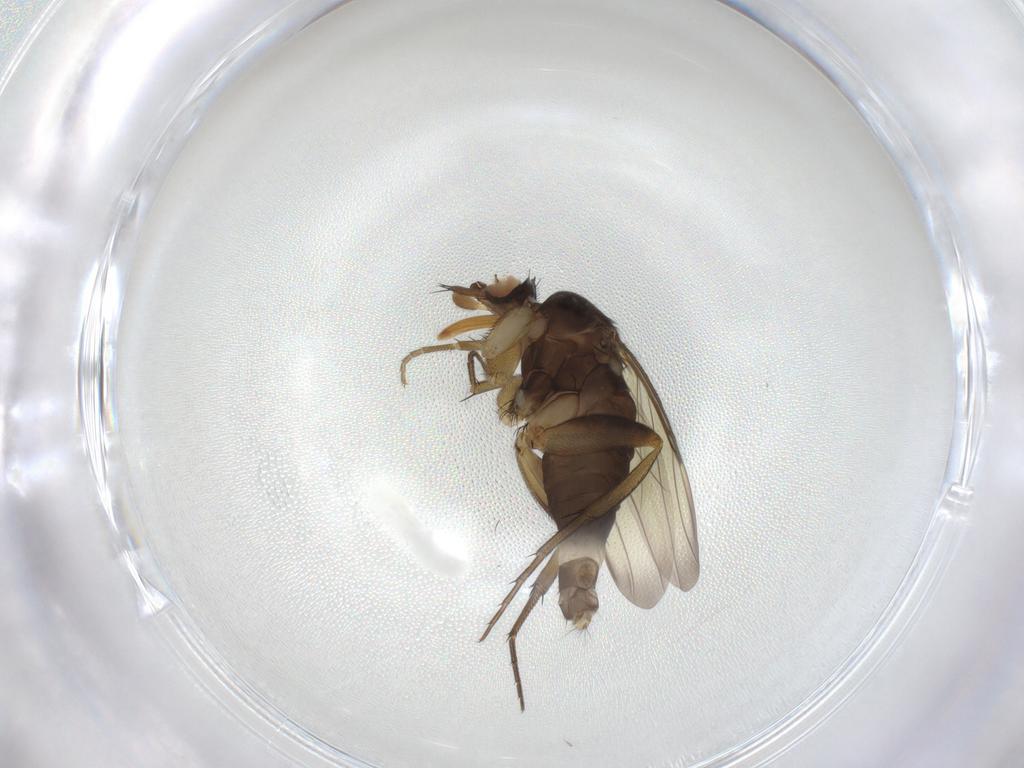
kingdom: Animalia
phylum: Arthropoda
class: Insecta
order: Diptera
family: Phoridae
